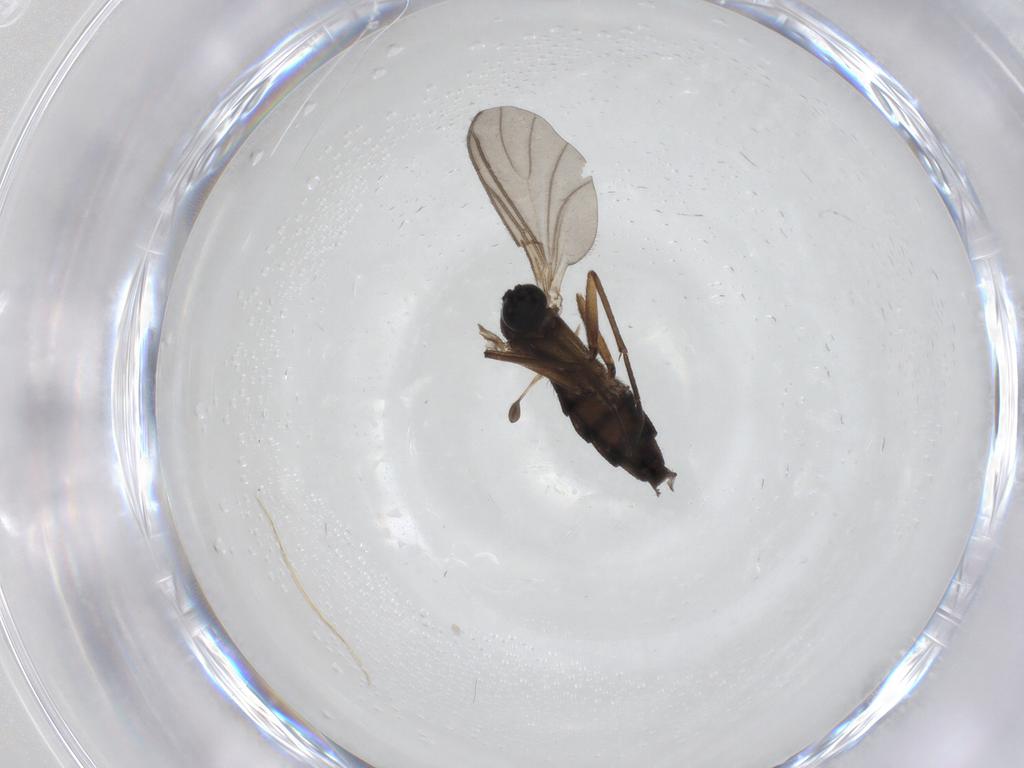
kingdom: Animalia
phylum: Arthropoda
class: Insecta
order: Diptera
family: Sciaridae
